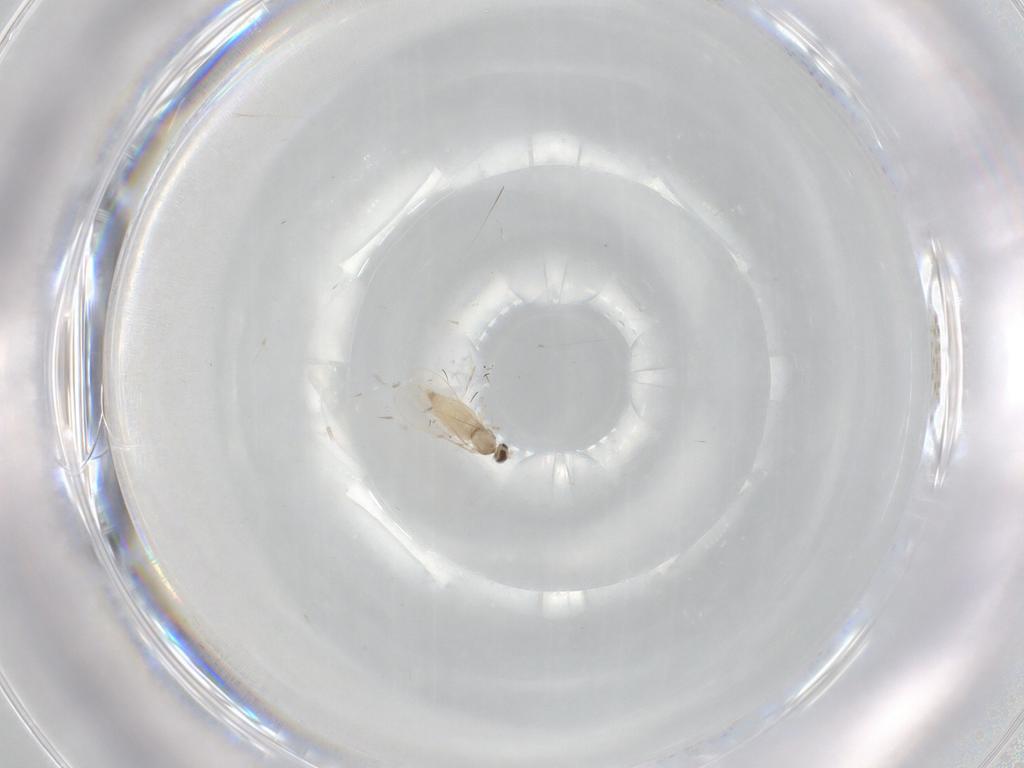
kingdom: Animalia
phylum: Arthropoda
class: Insecta
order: Diptera
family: Cecidomyiidae
